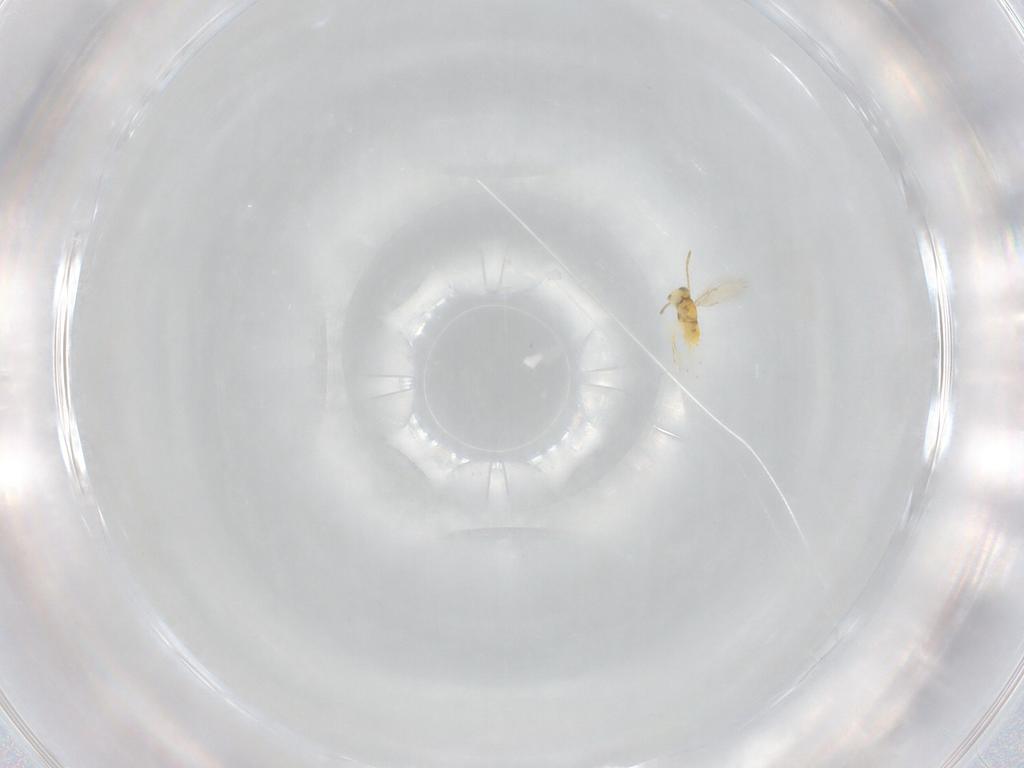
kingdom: Animalia
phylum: Arthropoda
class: Insecta
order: Hymenoptera
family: Aphelinidae
